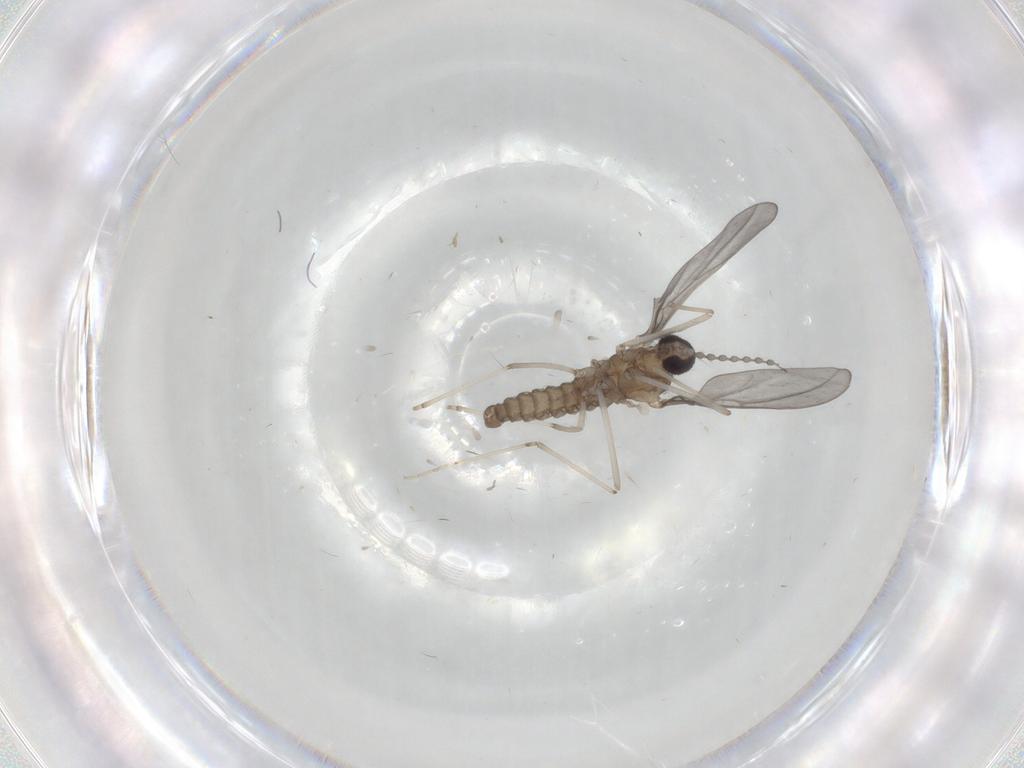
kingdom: Animalia
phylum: Arthropoda
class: Insecta
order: Diptera
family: Cecidomyiidae
